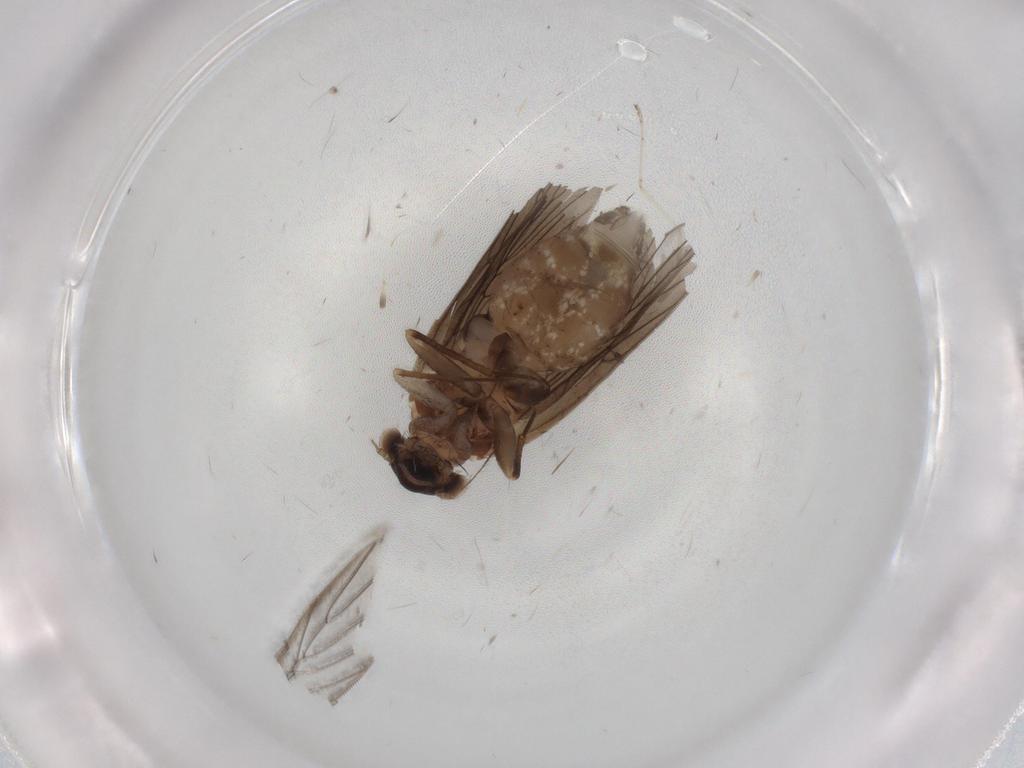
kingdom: Animalia
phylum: Arthropoda
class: Insecta
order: Psocodea
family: Lepidopsocidae
